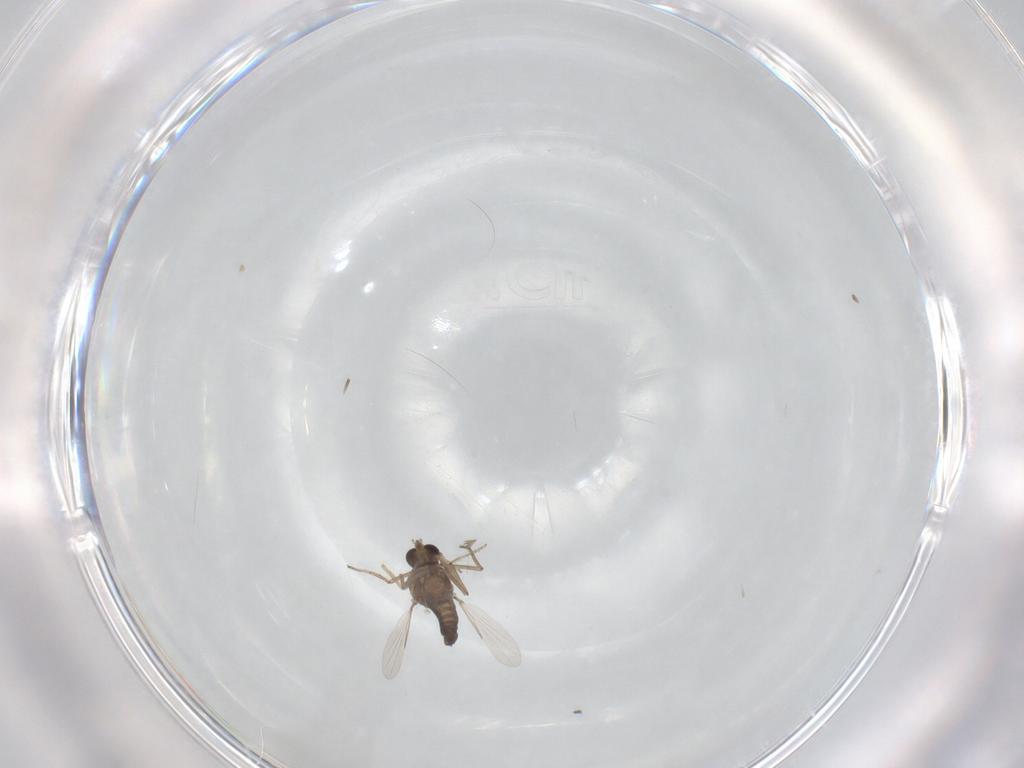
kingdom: Animalia
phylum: Arthropoda
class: Insecta
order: Diptera
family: Ceratopogonidae
